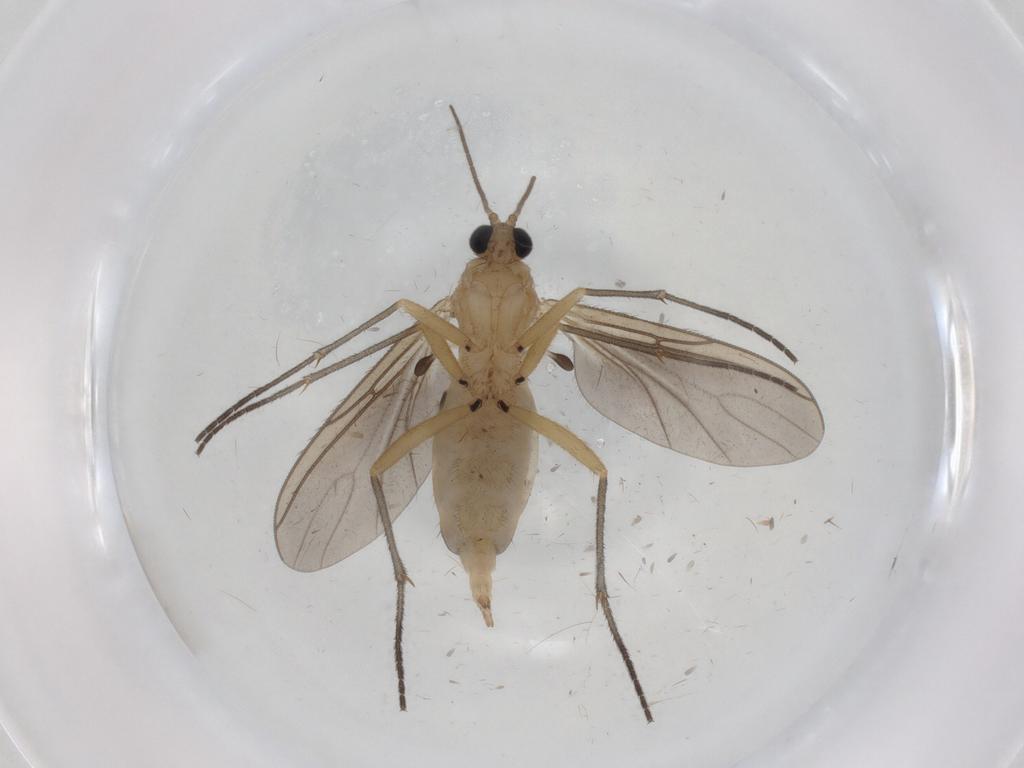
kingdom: Animalia
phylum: Arthropoda
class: Insecta
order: Diptera
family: Sciaridae
